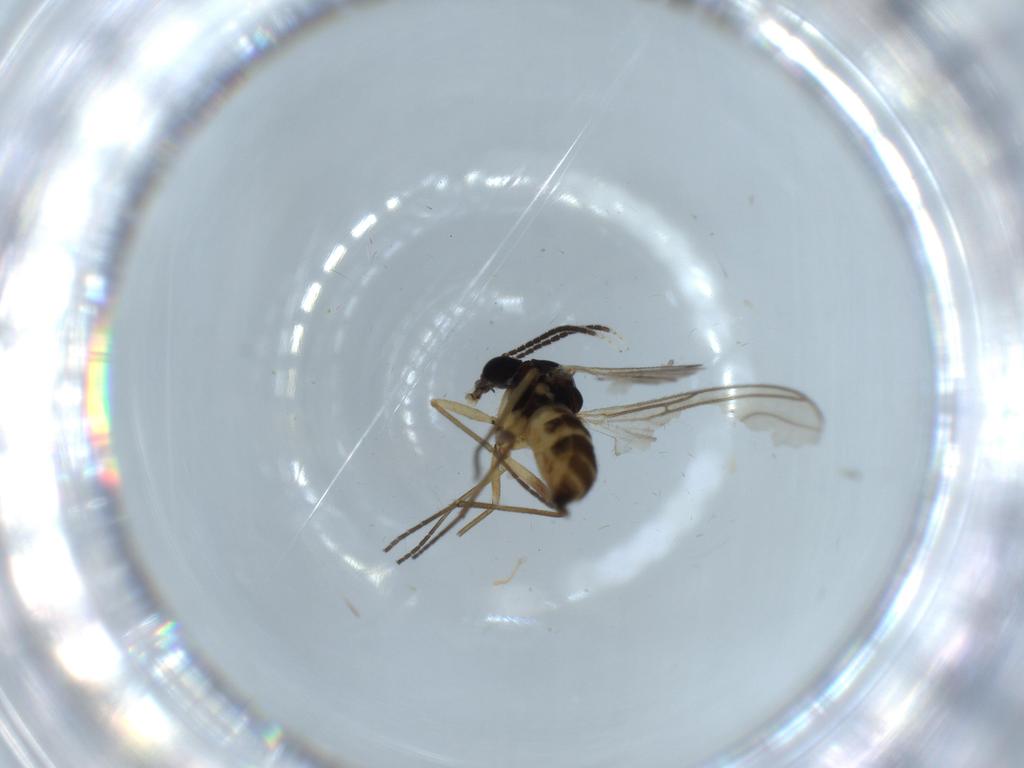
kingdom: Animalia
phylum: Arthropoda
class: Insecta
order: Diptera
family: Sciaridae
